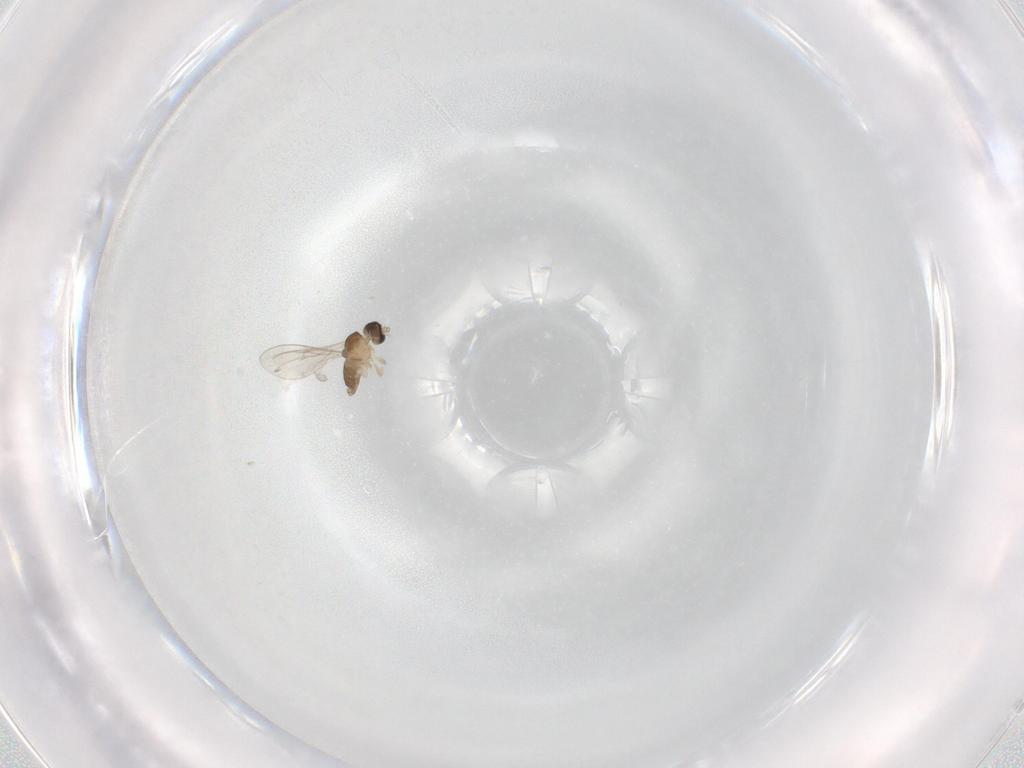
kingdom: Animalia
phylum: Arthropoda
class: Insecta
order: Diptera
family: Cecidomyiidae
